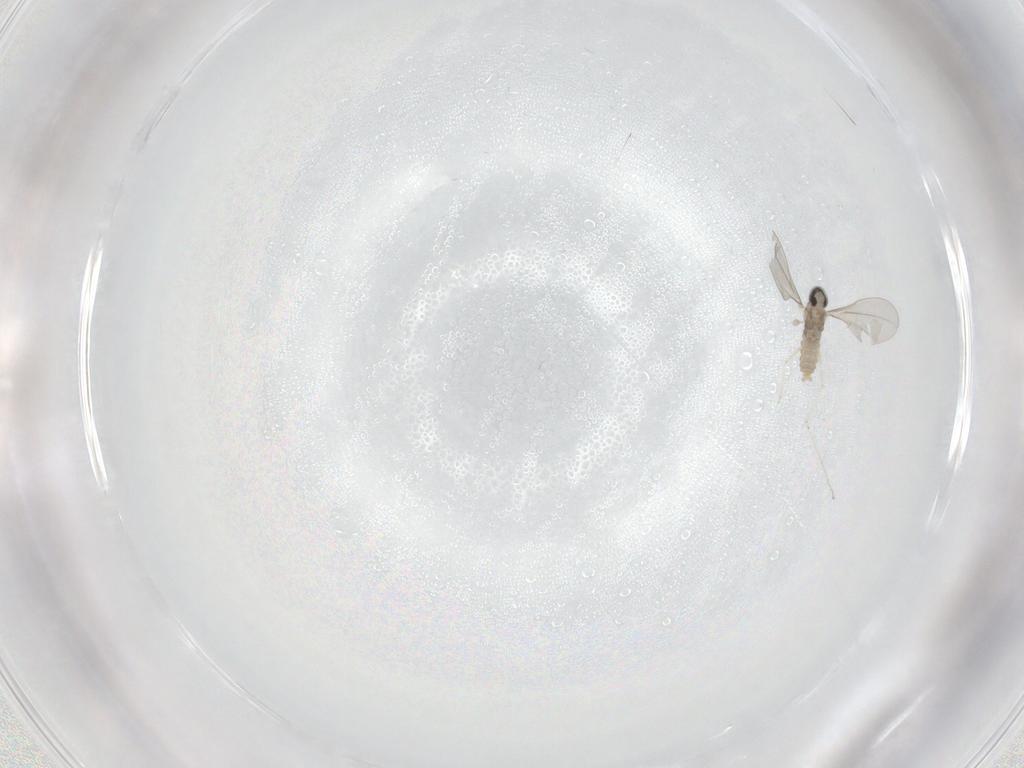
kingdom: Animalia
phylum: Arthropoda
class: Insecta
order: Diptera
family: Cecidomyiidae
